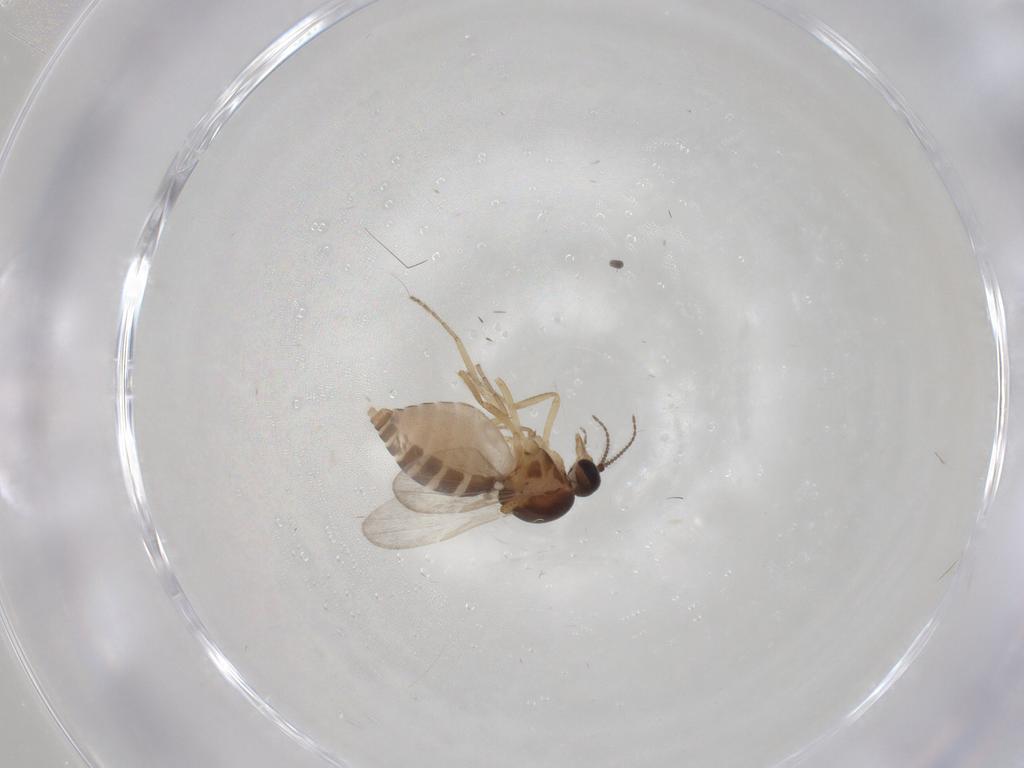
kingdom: Animalia
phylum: Arthropoda
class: Insecta
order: Diptera
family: Ceratopogonidae
